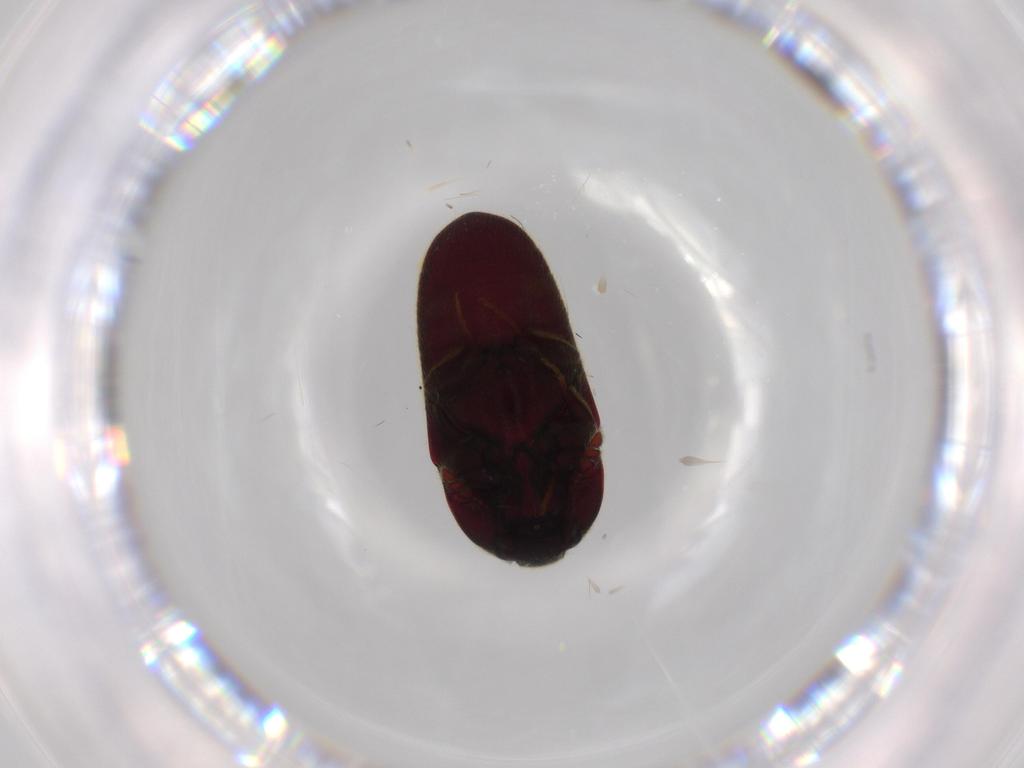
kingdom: Animalia
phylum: Arthropoda
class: Insecta
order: Coleoptera
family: Throscidae
